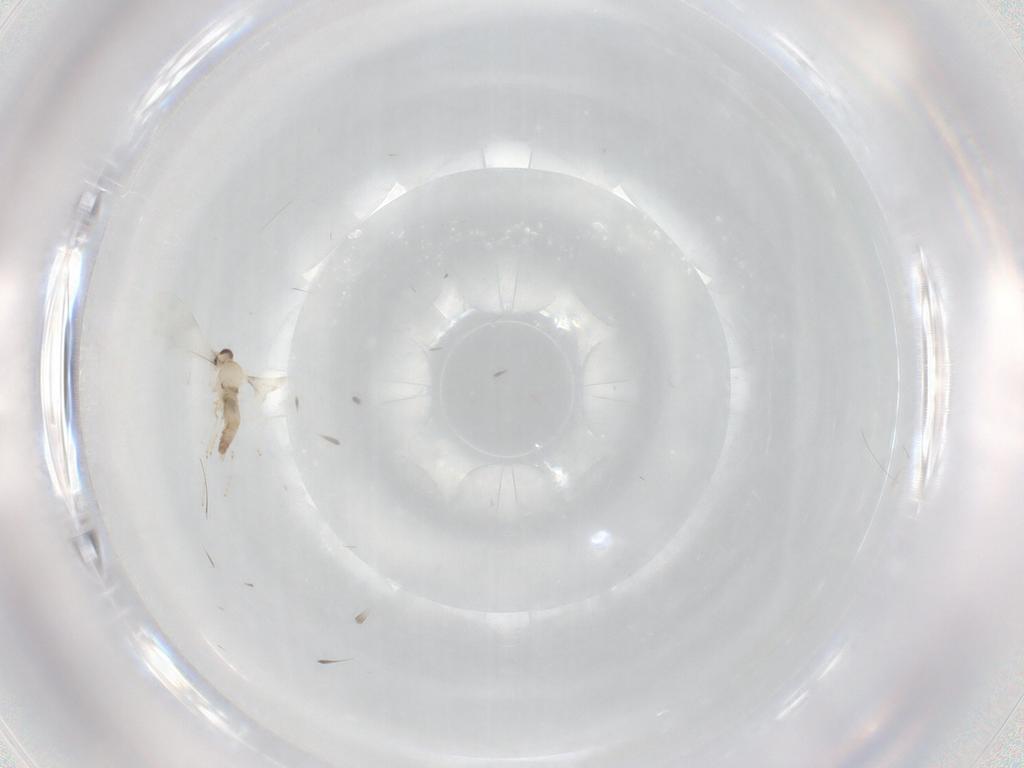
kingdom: Animalia
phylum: Arthropoda
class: Insecta
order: Diptera
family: Cecidomyiidae
